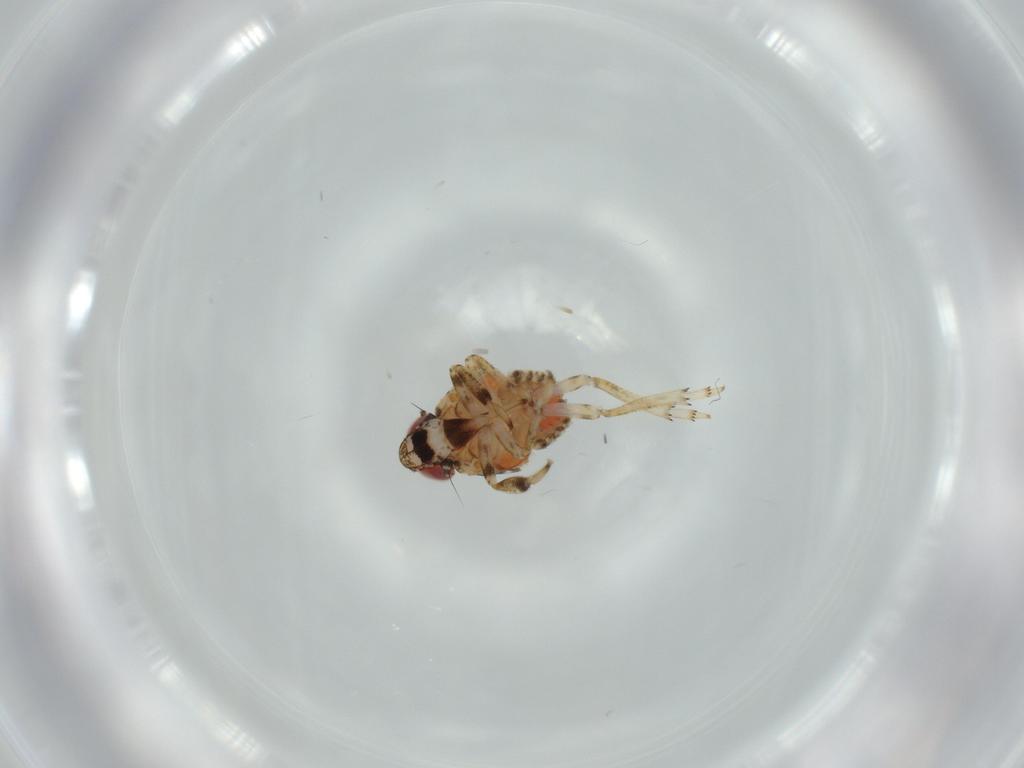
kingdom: Animalia
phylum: Arthropoda
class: Insecta
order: Hemiptera
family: Issidae
